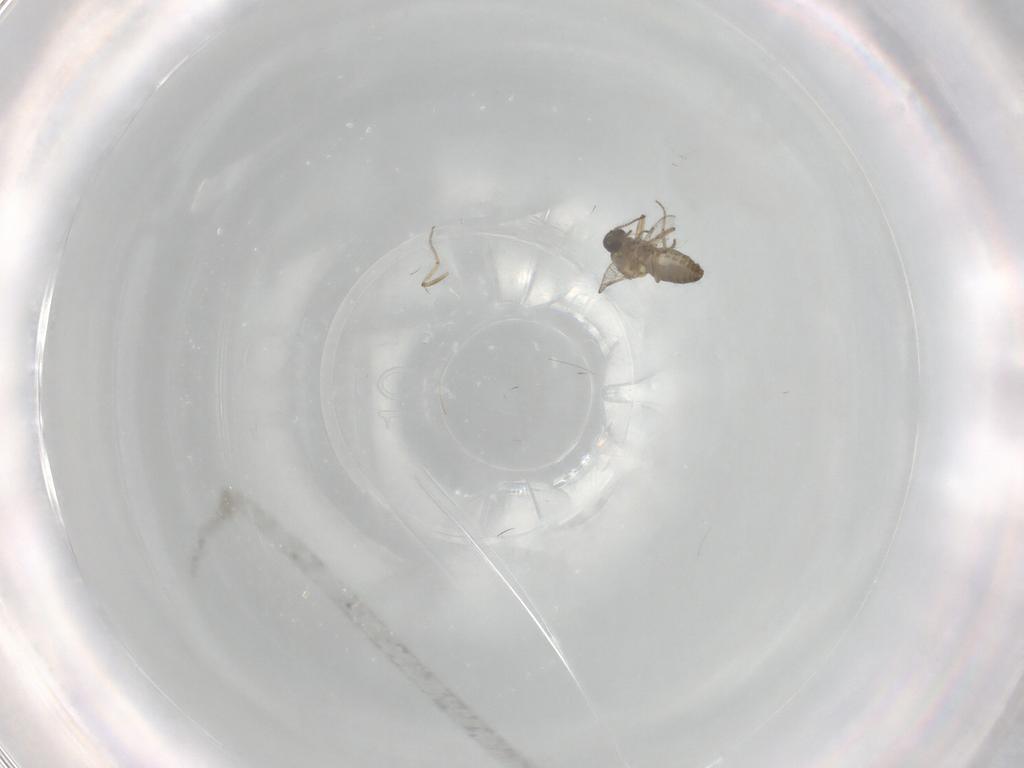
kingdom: Animalia
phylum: Arthropoda
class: Insecta
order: Diptera
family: Ceratopogonidae
